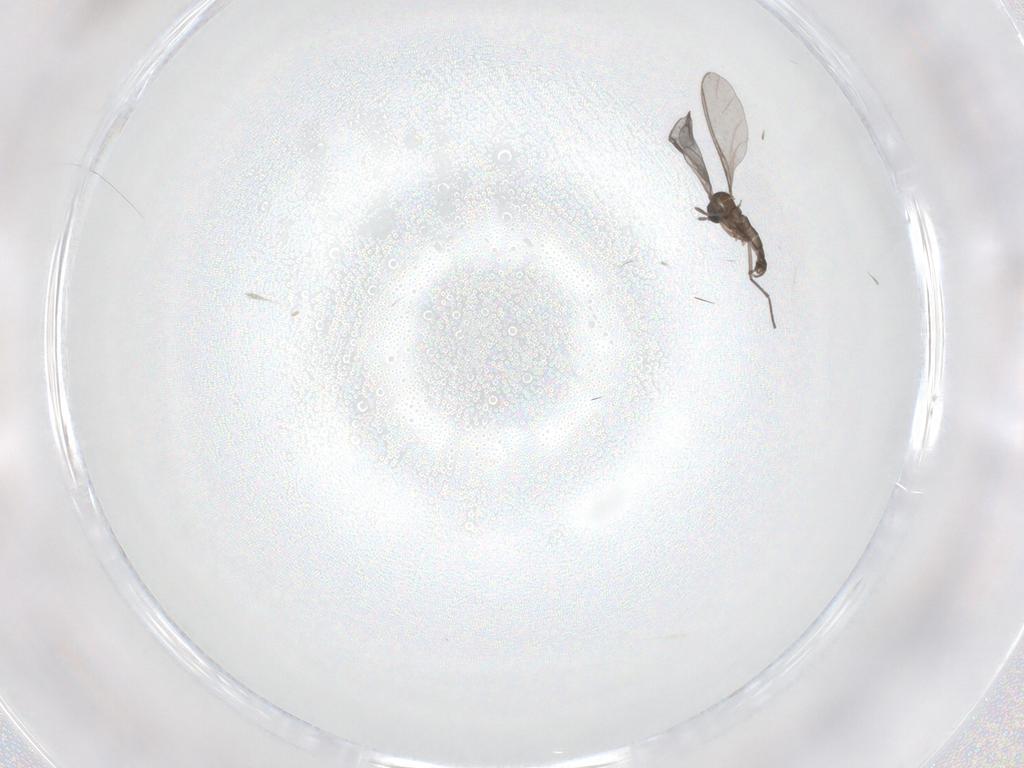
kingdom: Animalia
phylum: Arthropoda
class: Insecta
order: Diptera
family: Sciaridae
